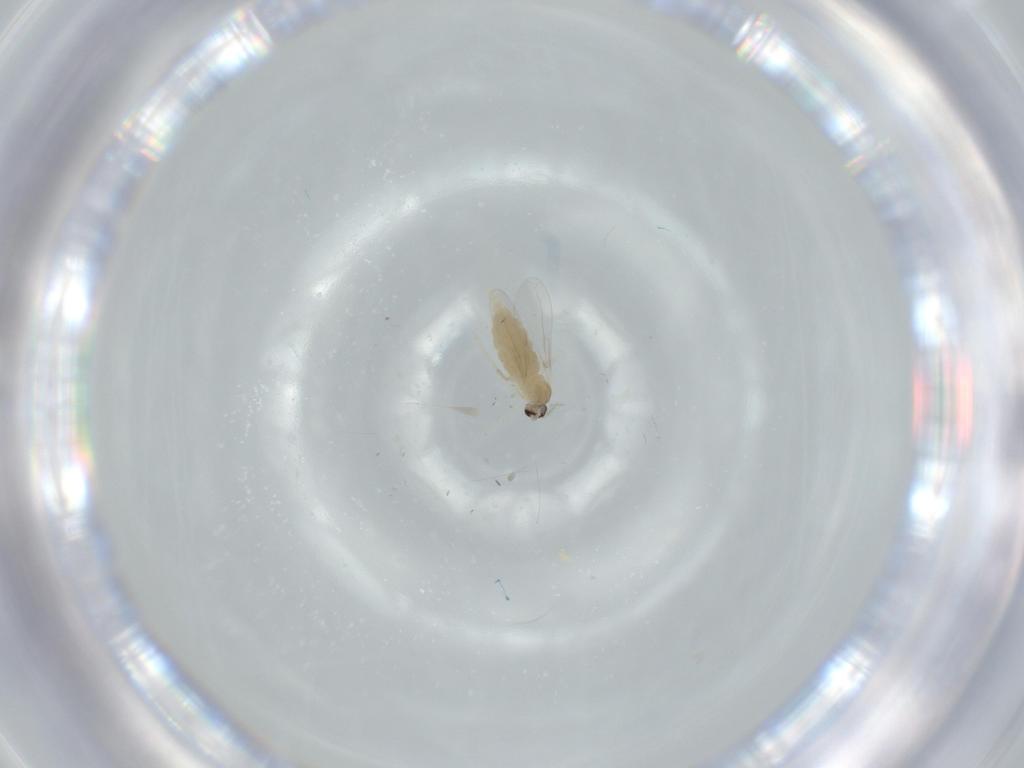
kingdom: Animalia
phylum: Arthropoda
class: Insecta
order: Diptera
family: Cecidomyiidae
